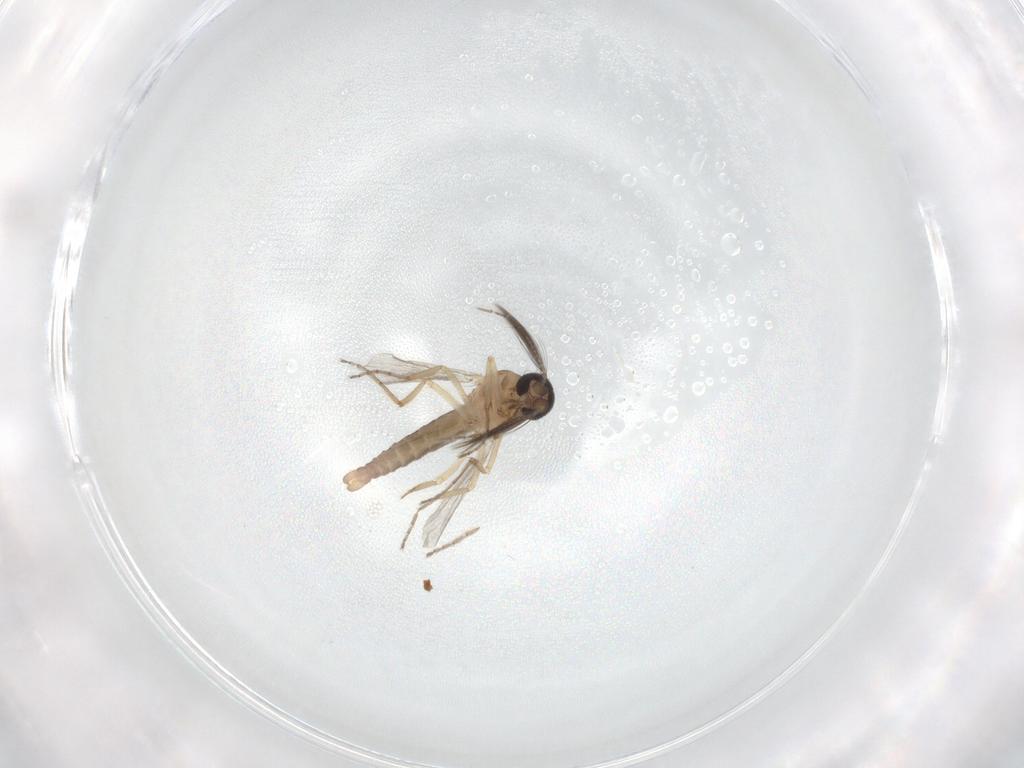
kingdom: Animalia
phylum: Arthropoda
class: Insecta
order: Diptera
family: Ceratopogonidae
